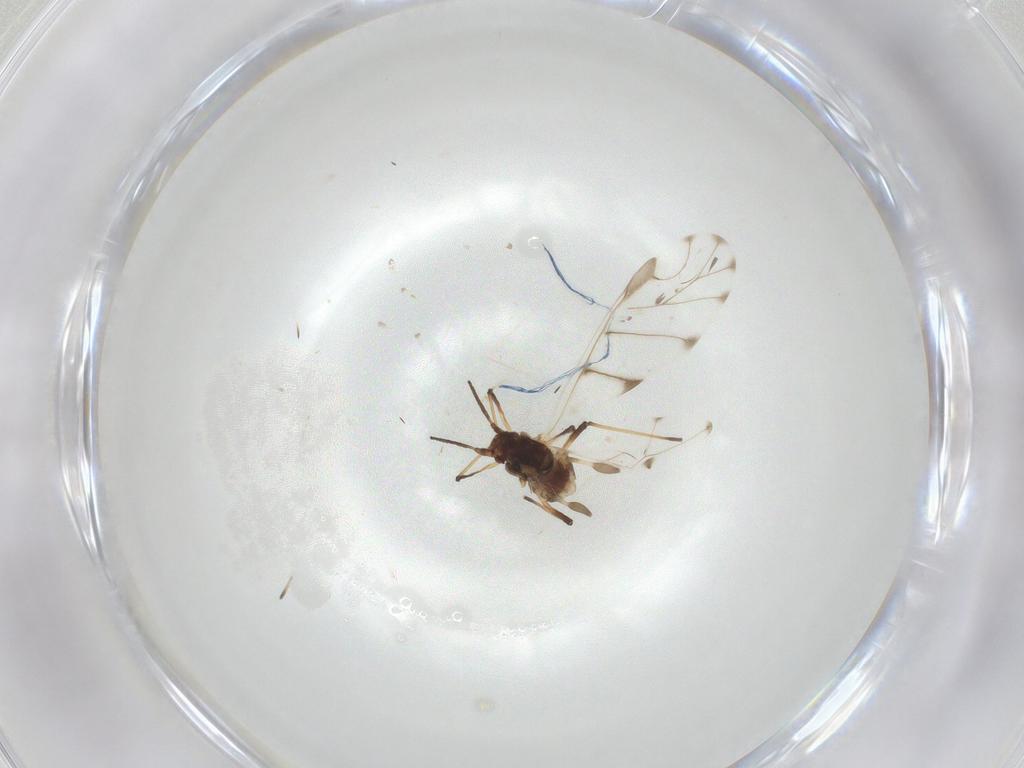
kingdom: Animalia
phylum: Arthropoda
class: Insecta
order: Hemiptera
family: Aphididae
